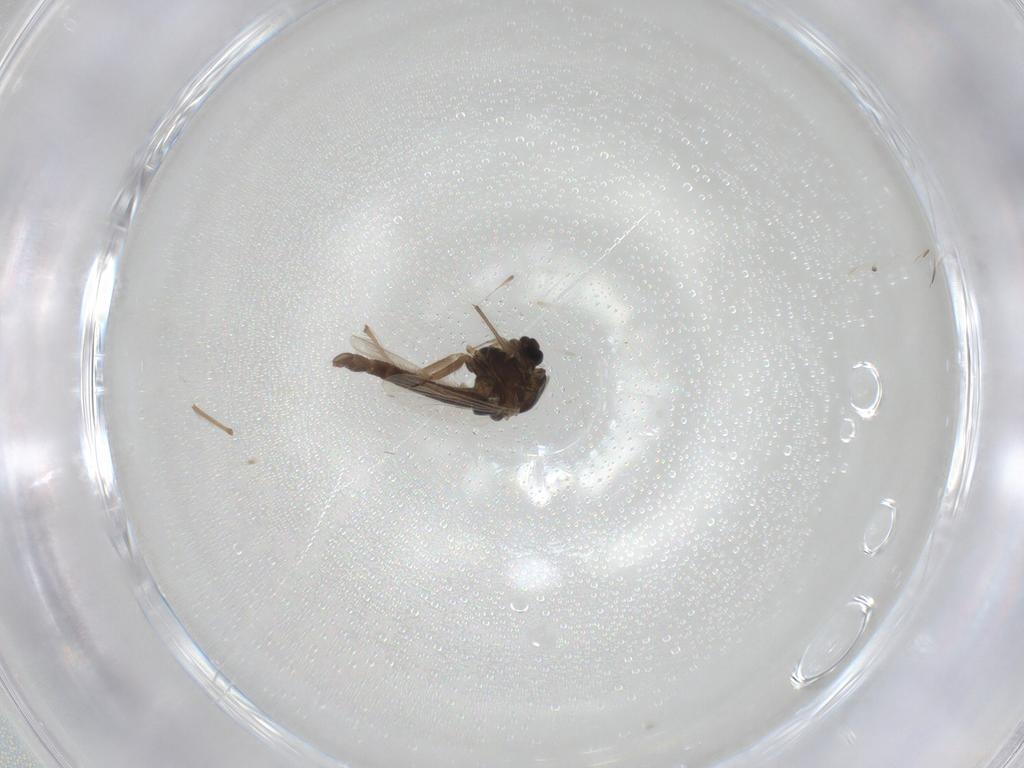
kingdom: Animalia
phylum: Arthropoda
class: Insecta
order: Diptera
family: Chironomidae
